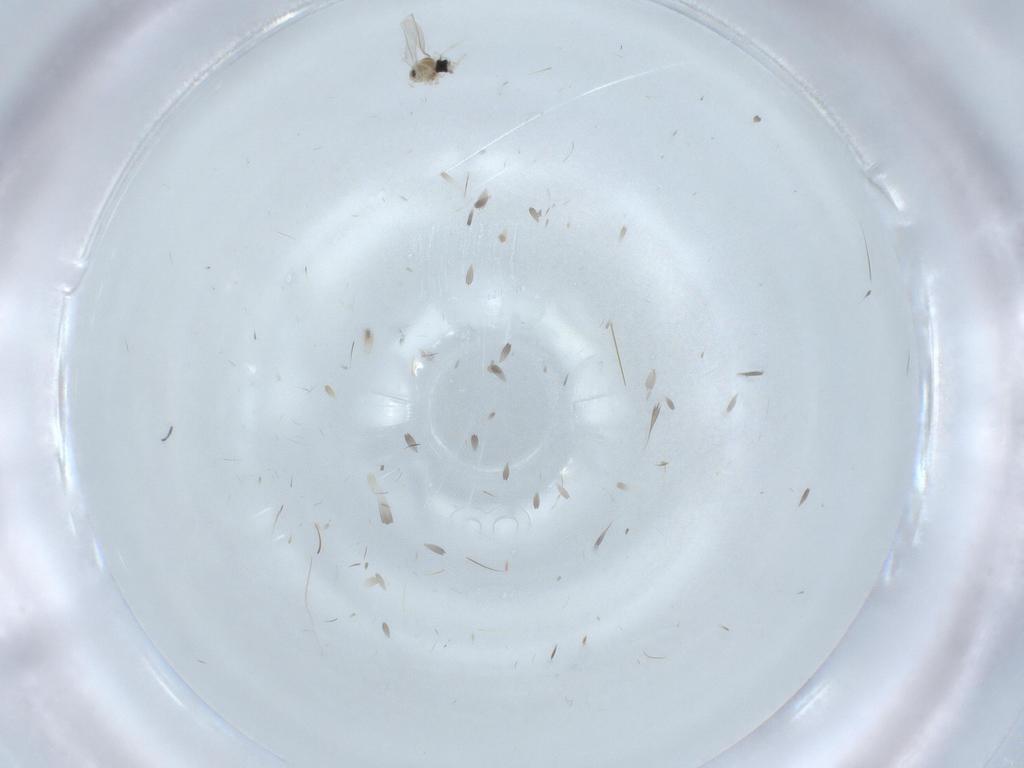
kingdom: Animalia
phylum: Arthropoda
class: Insecta
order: Diptera
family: Cecidomyiidae
